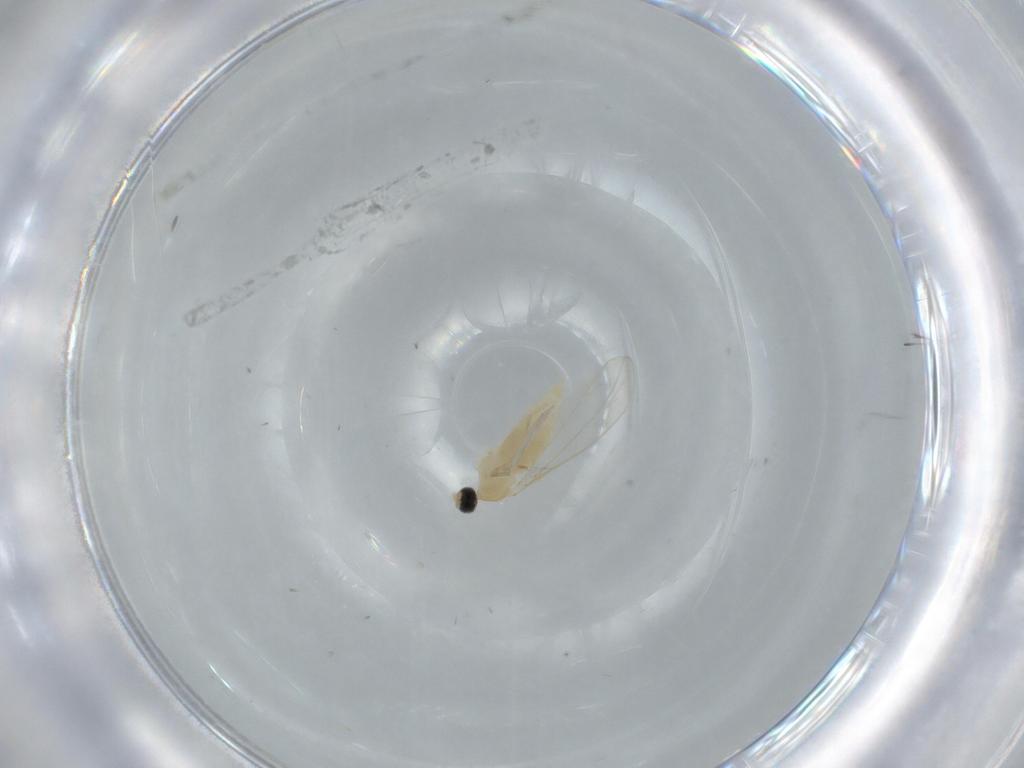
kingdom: Animalia
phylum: Arthropoda
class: Insecta
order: Diptera
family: Cecidomyiidae
